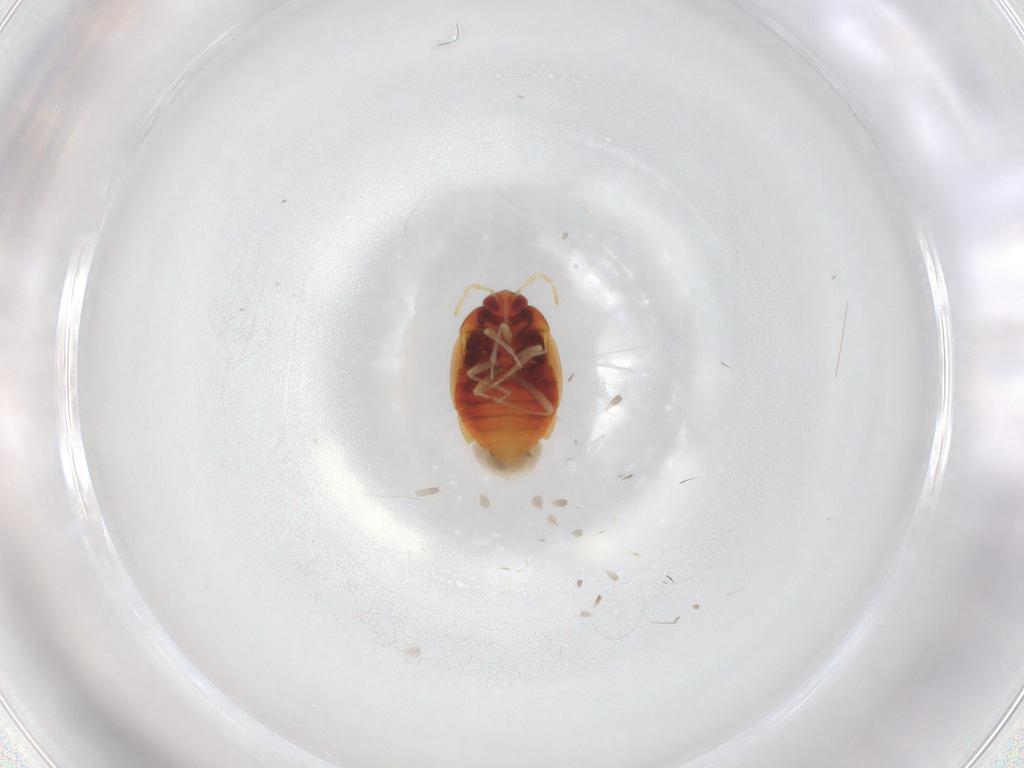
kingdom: Animalia
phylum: Arthropoda
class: Insecta
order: Hemiptera
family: Anthocoridae
